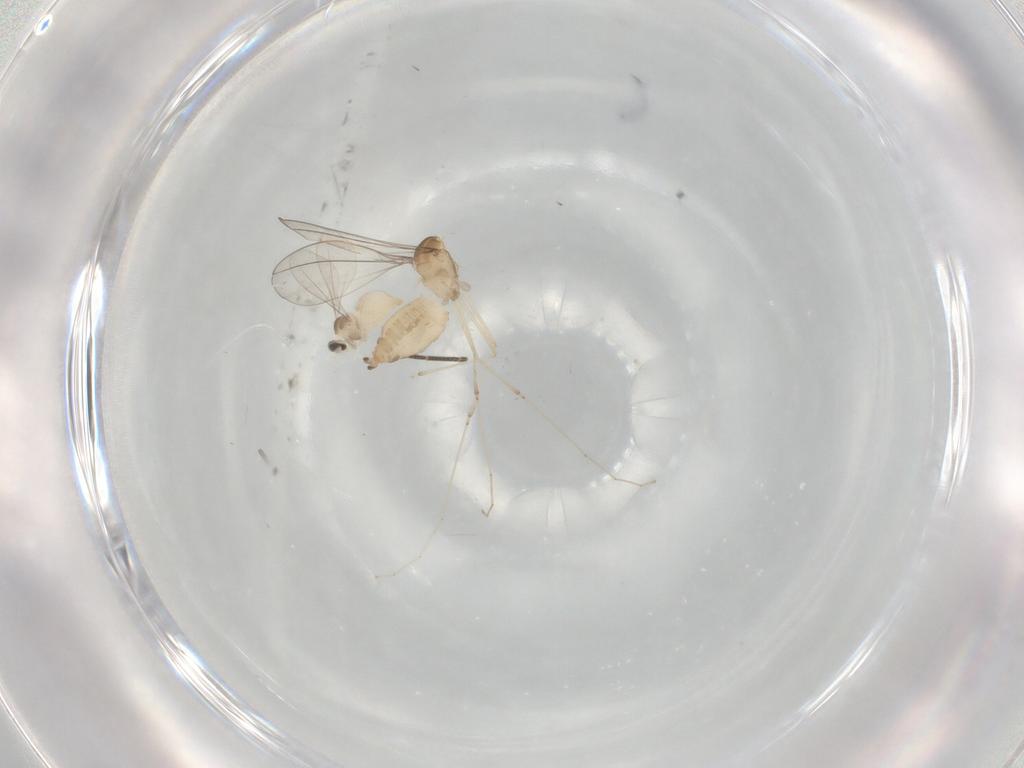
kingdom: Animalia
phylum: Arthropoda
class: Insecta
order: Diptera
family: Cecidomyiidae
